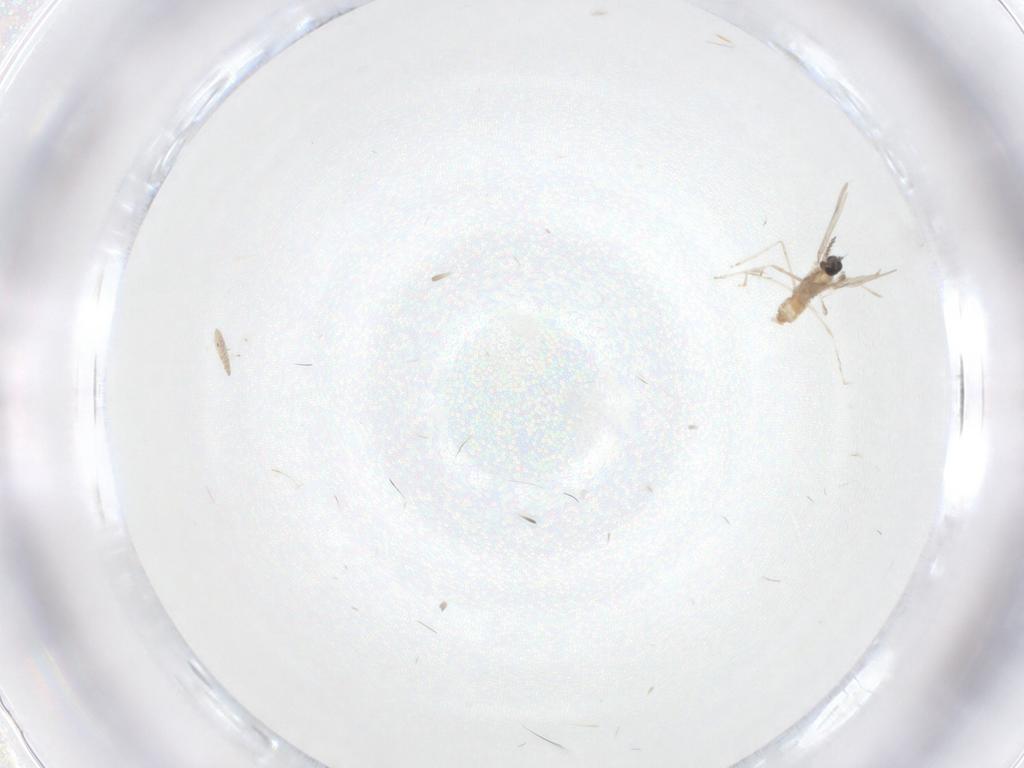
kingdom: Animalia
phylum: Arthropoda
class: Insecta
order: Diptera
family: Cecidomyiidae
